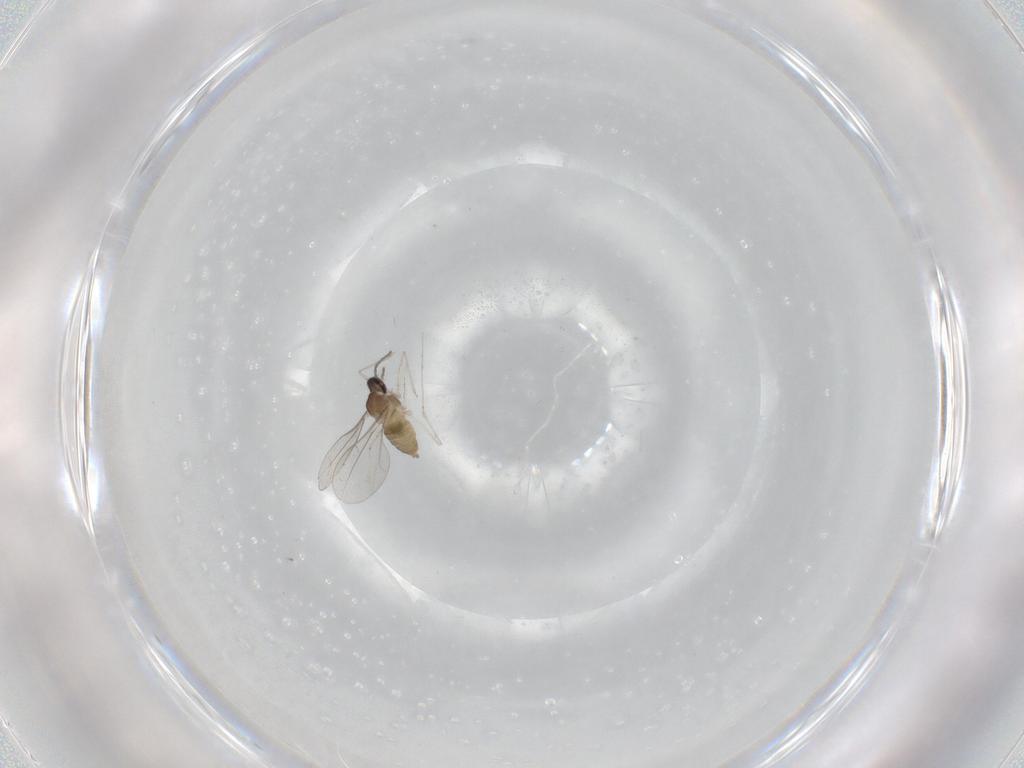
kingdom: Animalia
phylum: Arthropoda
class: Insecta
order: Diptera
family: Cecidomyiidae
